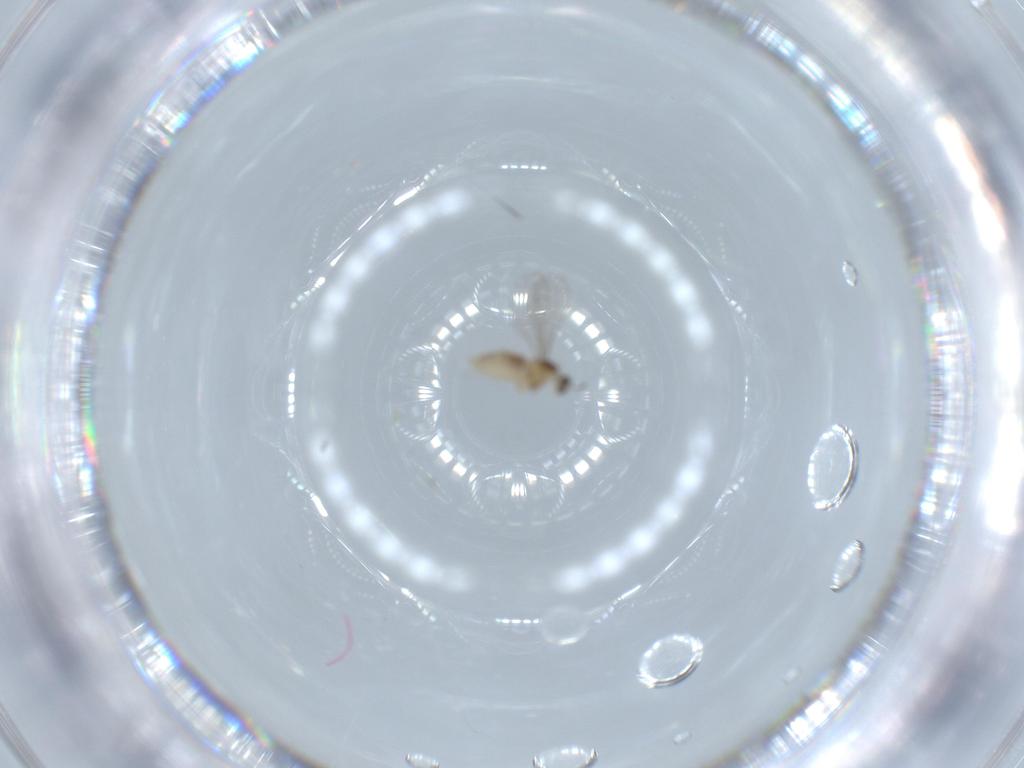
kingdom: Animalia
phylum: Arthropoda
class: Insecta
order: Diptera
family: Cecidomyiidae
